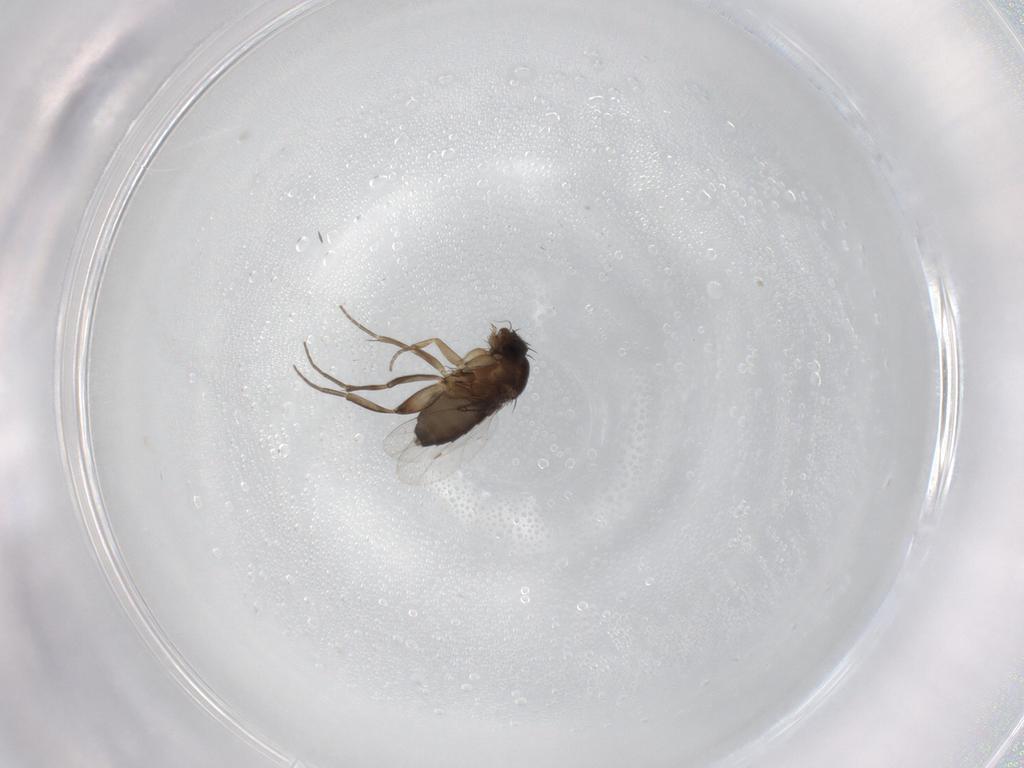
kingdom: Animalia
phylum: Arthropoda
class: Insecta
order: Diptera
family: Phoridae
